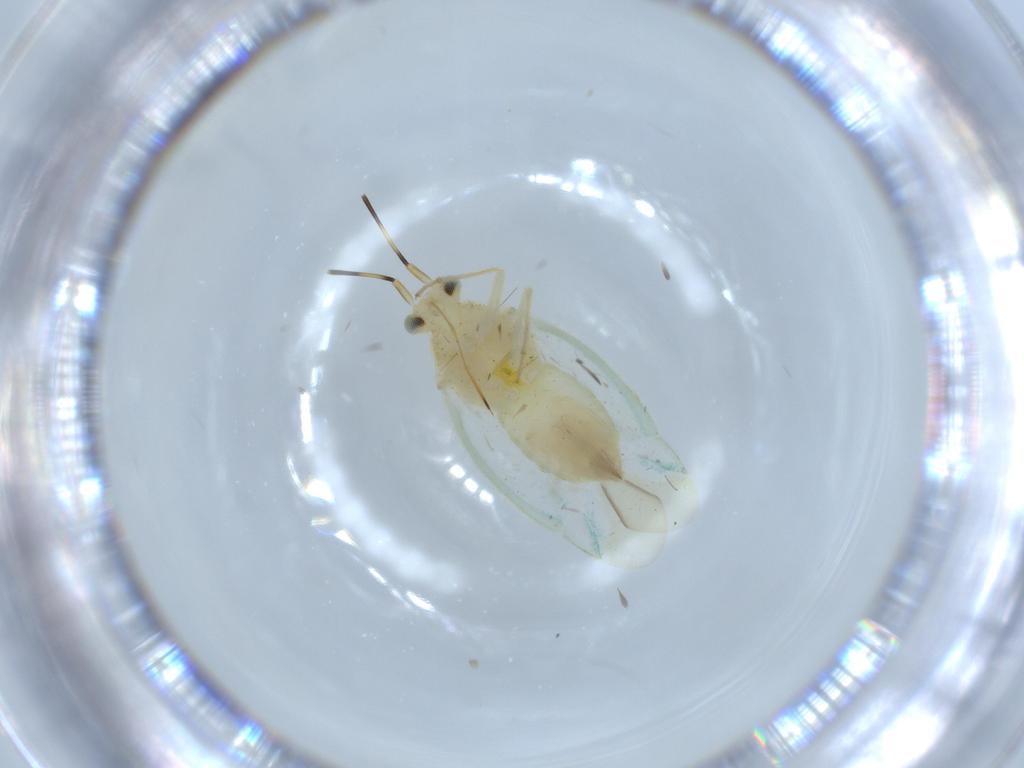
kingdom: Animalia
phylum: Arthropoda
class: Insecta
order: Hemiptera
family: Miridae
